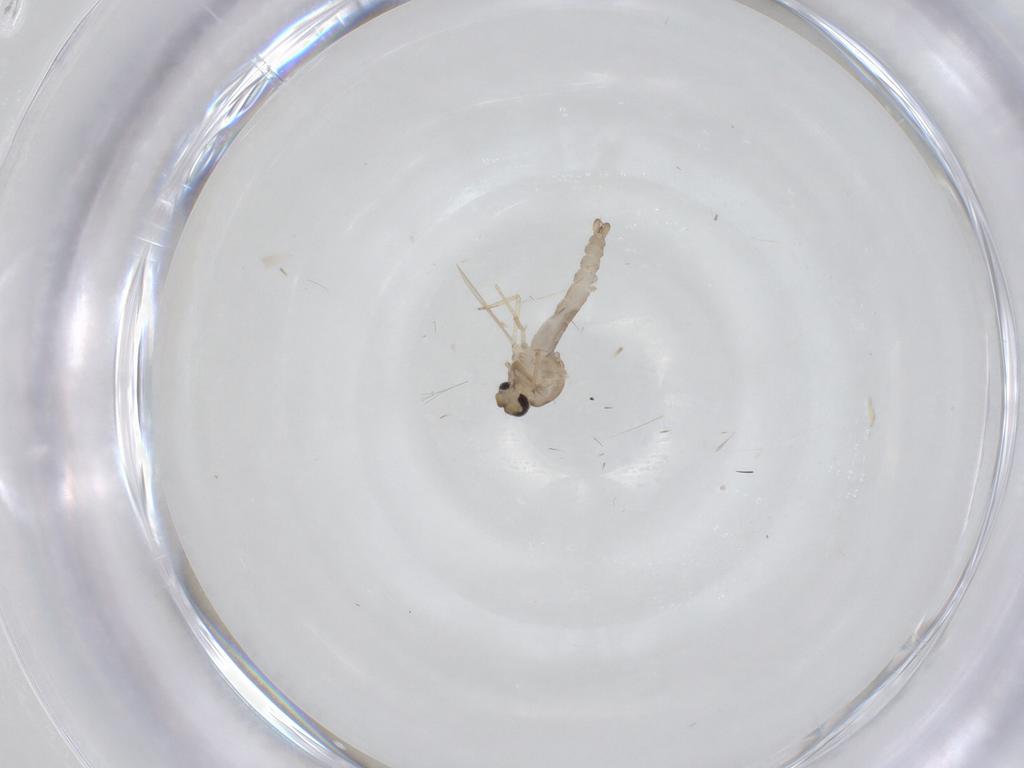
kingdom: Animalia
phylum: Arthropoda
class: Insecta
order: Diptera
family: Ceratopogonidae
